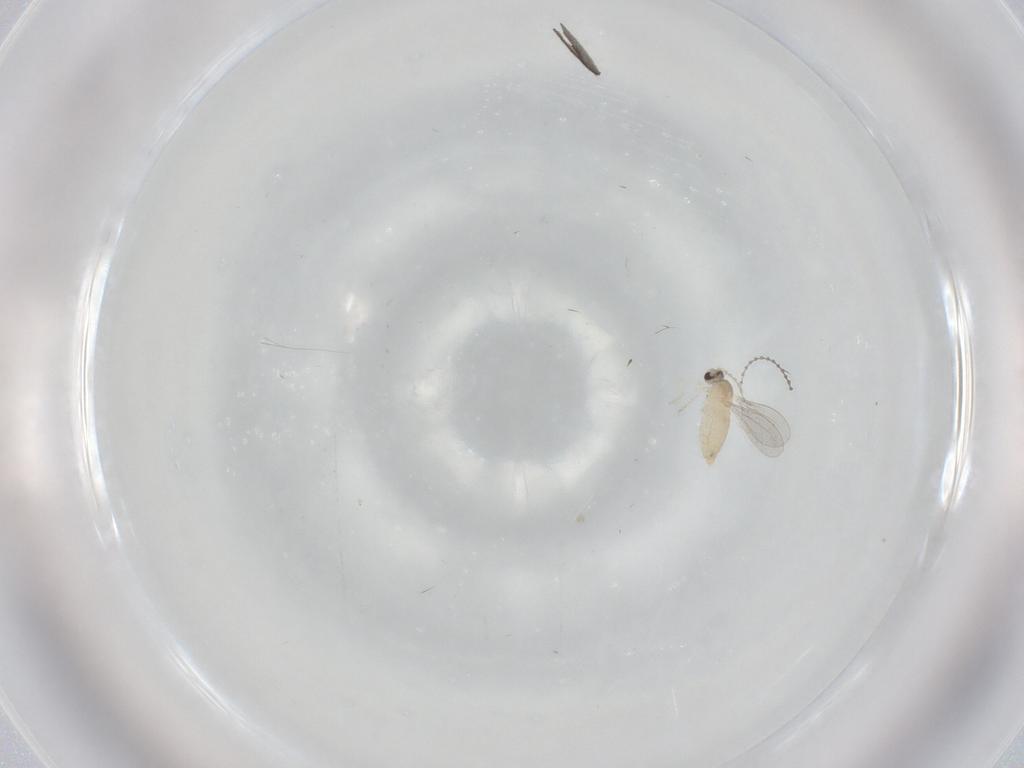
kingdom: Animalia
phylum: Arthropoda
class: Insecta
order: Diptera
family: Cecidomyiidae
